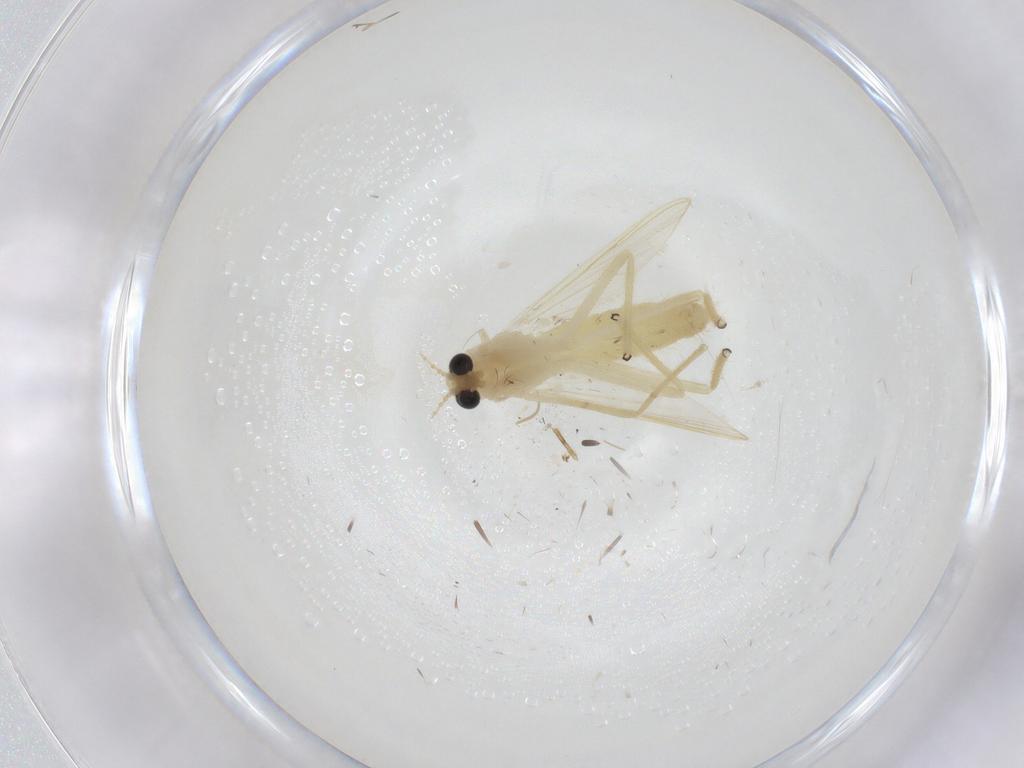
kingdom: Animalia
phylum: Arthropoda
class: Insecta
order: Diptera
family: Chironomidae
